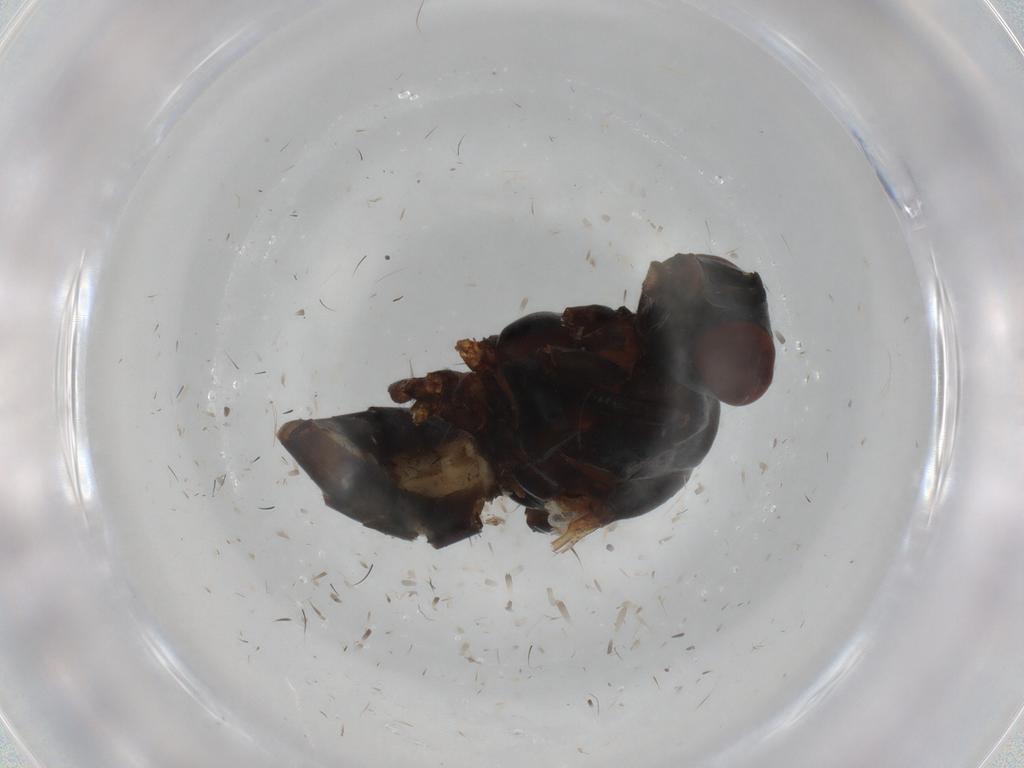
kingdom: Animalia
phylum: Arthropoda
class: Insecta
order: Diptera
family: Anthomyiidae
